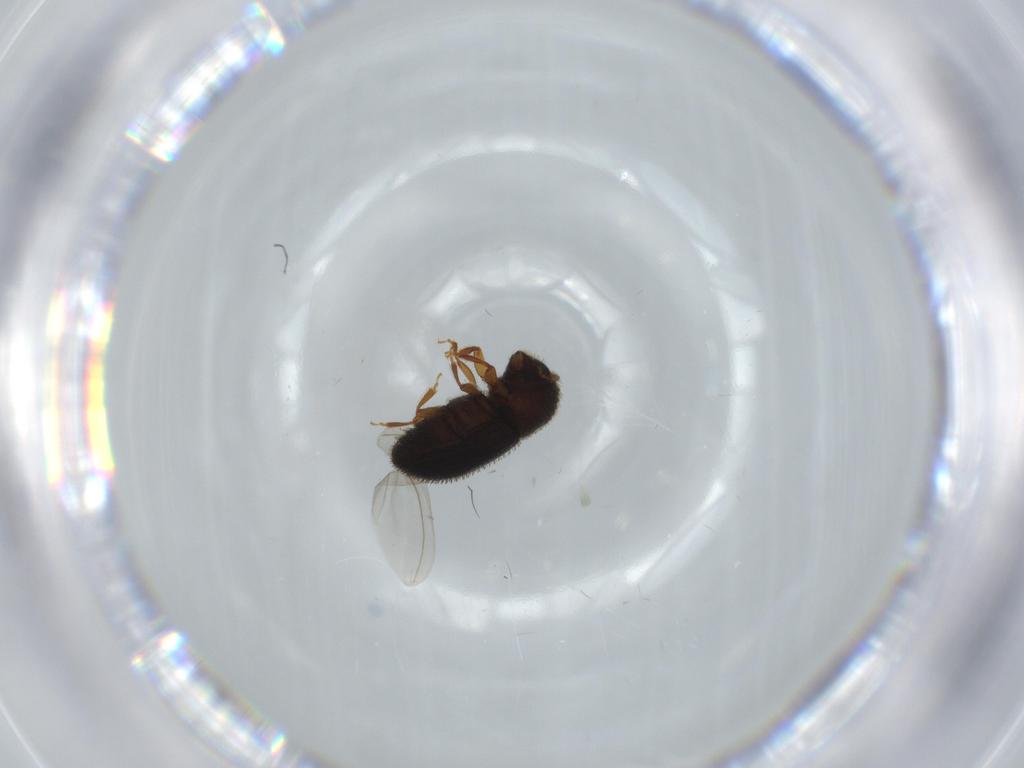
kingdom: Animalia
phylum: Arthropoda
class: Insecta
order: Coleoptera
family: Curculionidae
